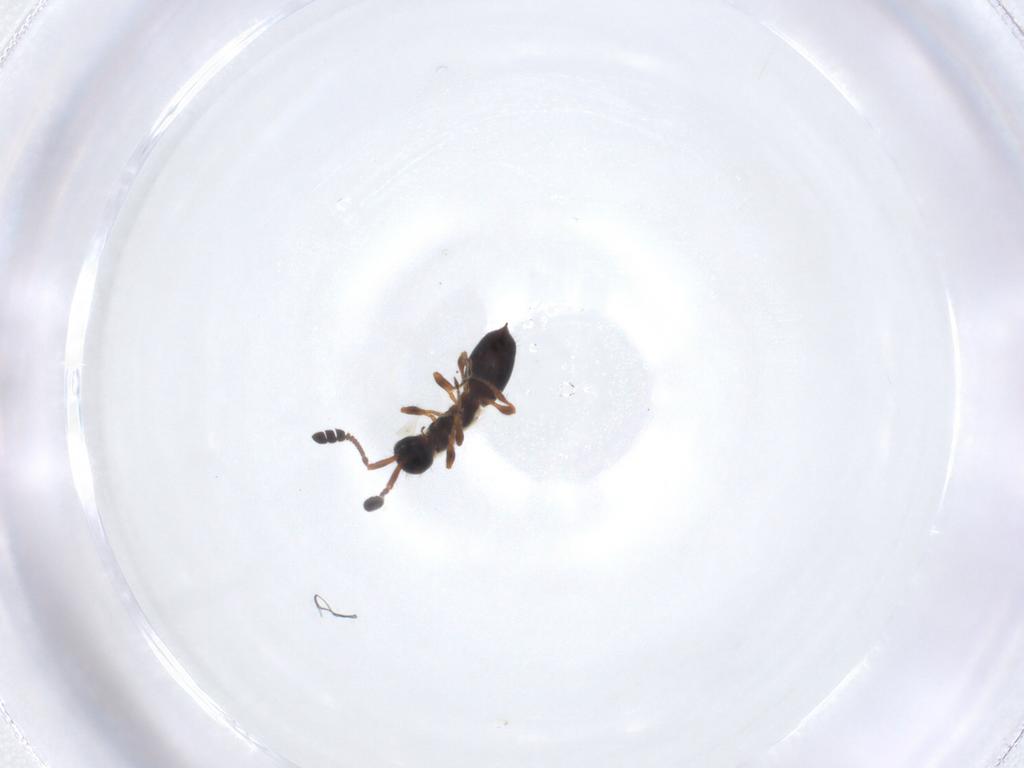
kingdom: Animalia
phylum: Arthropoda
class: Insecta
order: Hymenoptera
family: Diapriidae
